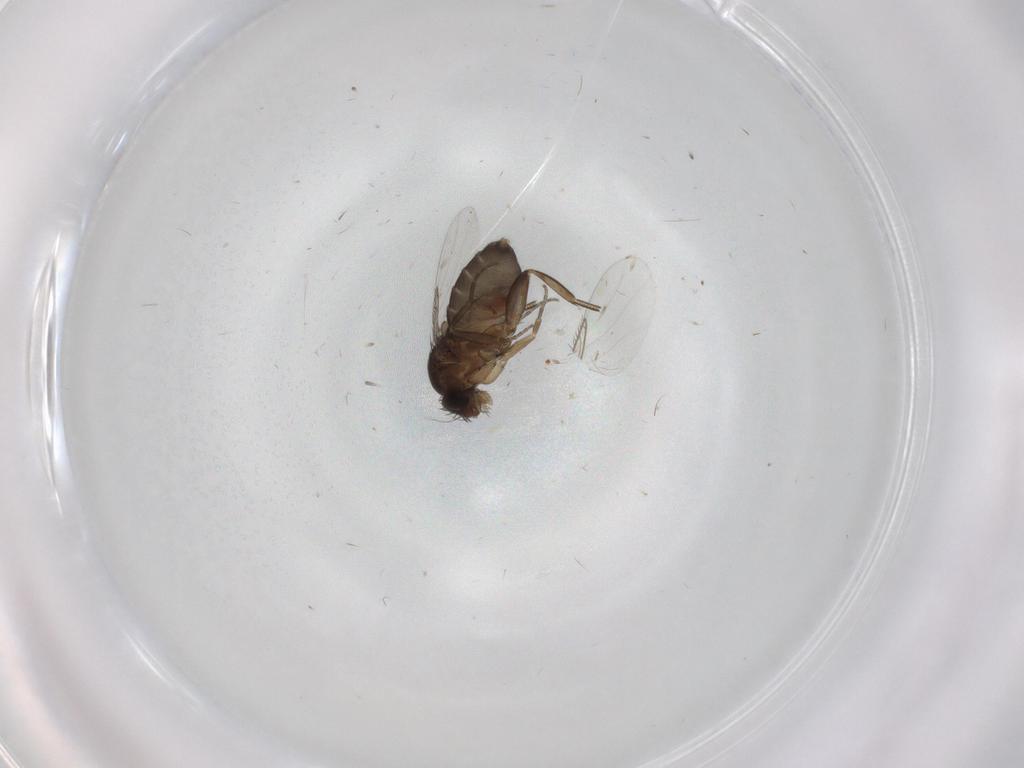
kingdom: Animalia
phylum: Arthropoda
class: Insecta
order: Diptera
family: Phoridae
